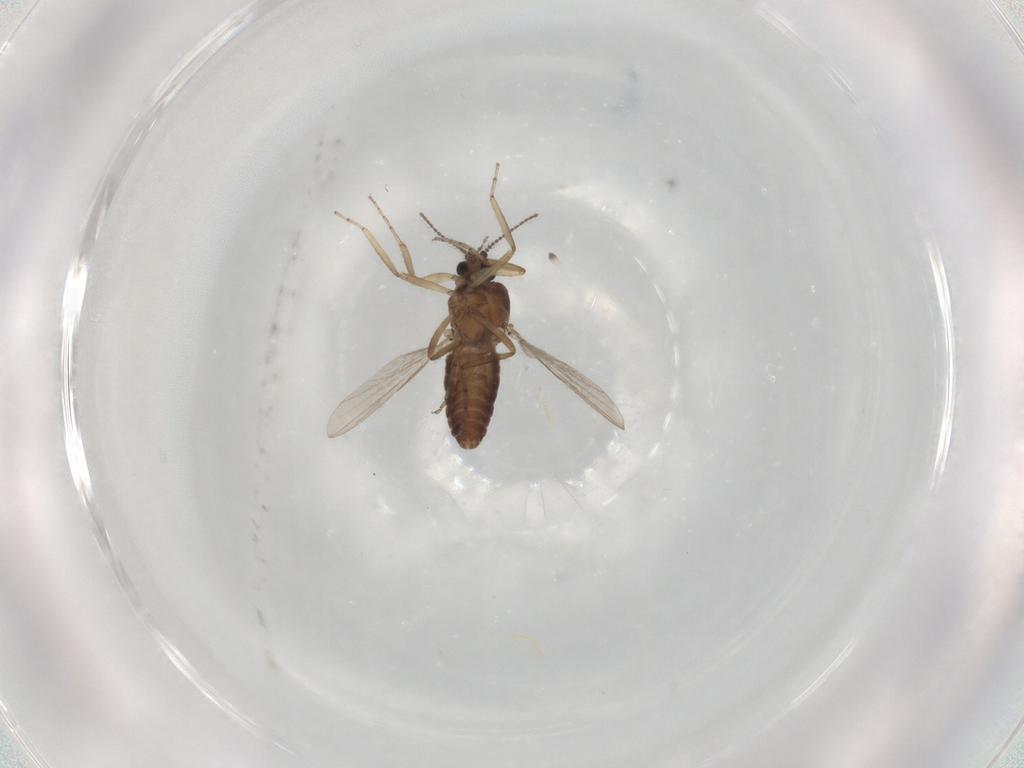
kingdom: Animalia
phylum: Arthropoda
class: Insecta
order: Diptera
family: Ceratopogonidae
